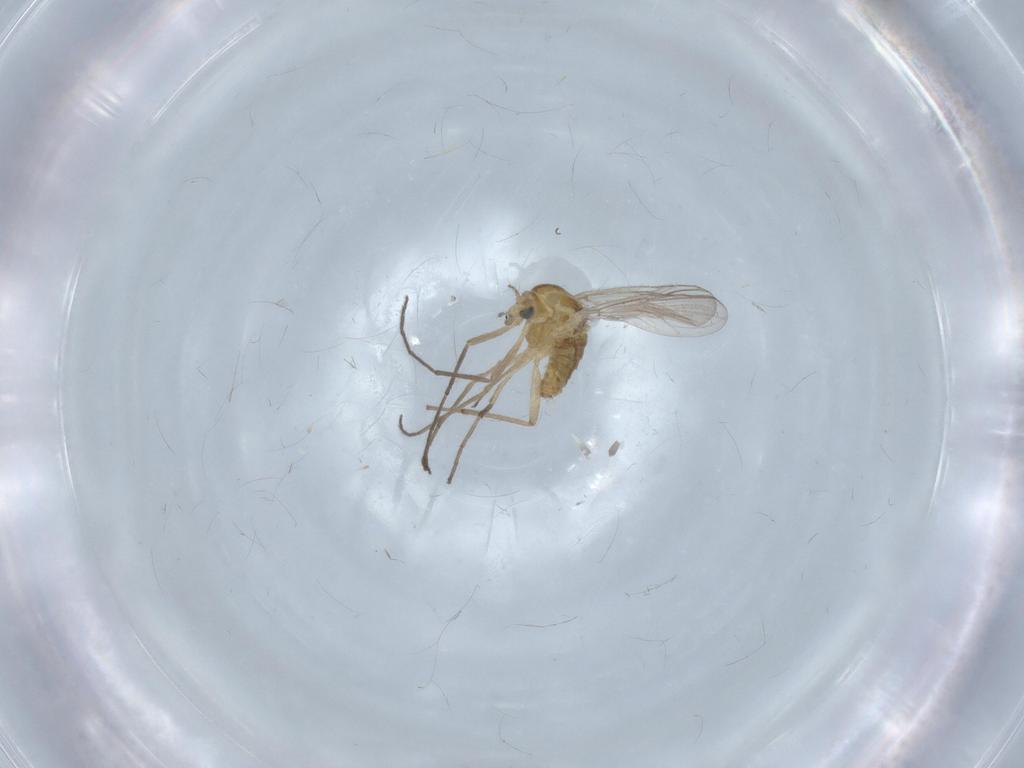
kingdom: Animalia
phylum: Arthropoda
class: Insecta
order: Diptera
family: Chironomidae
